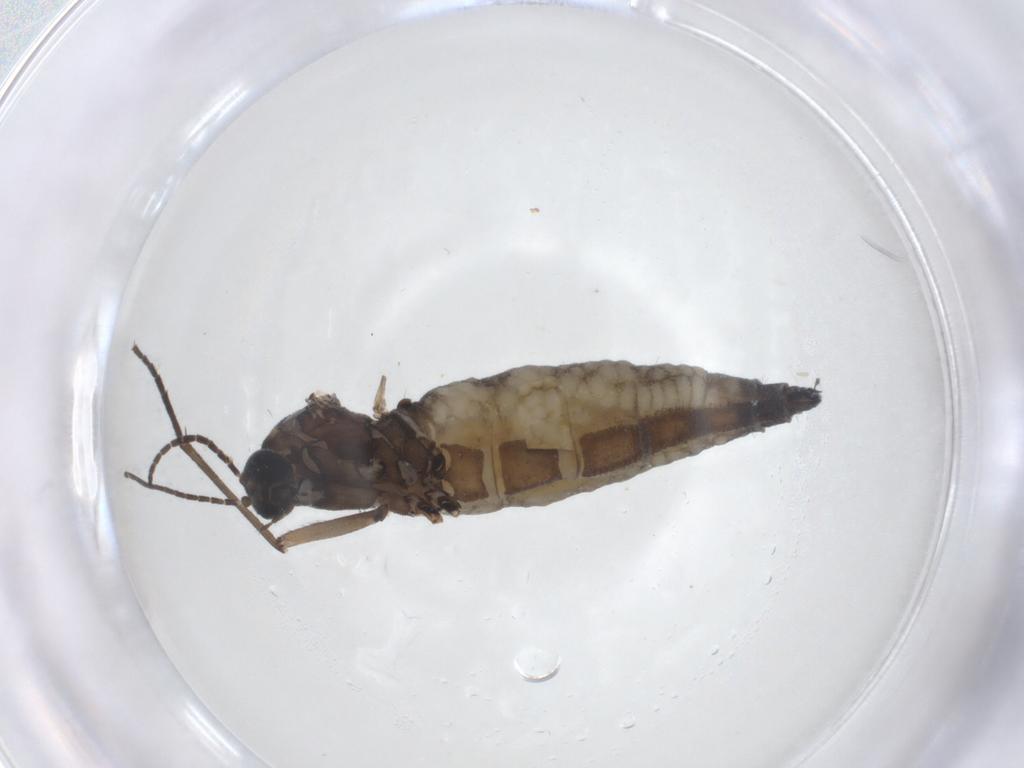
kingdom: Animalia
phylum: Arthropoda
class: Insecta
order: Diptera
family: Sciaridae
